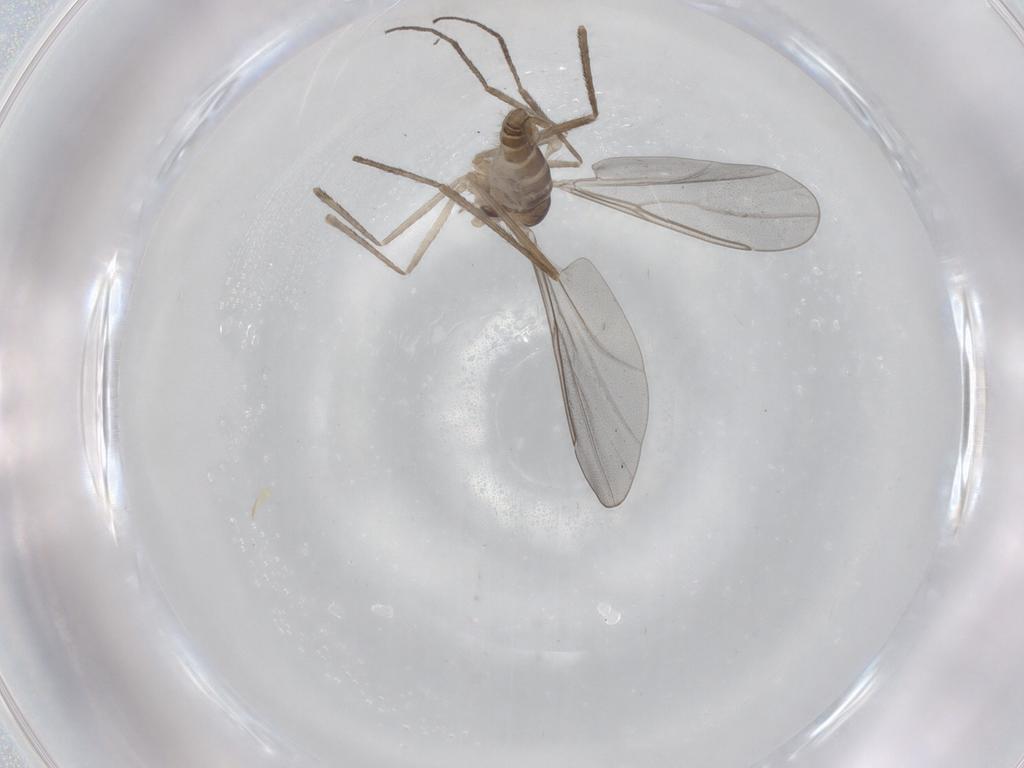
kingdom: Animalia
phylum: Arthropoda
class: Insecta
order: Diptera
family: Cecidomyiidae
